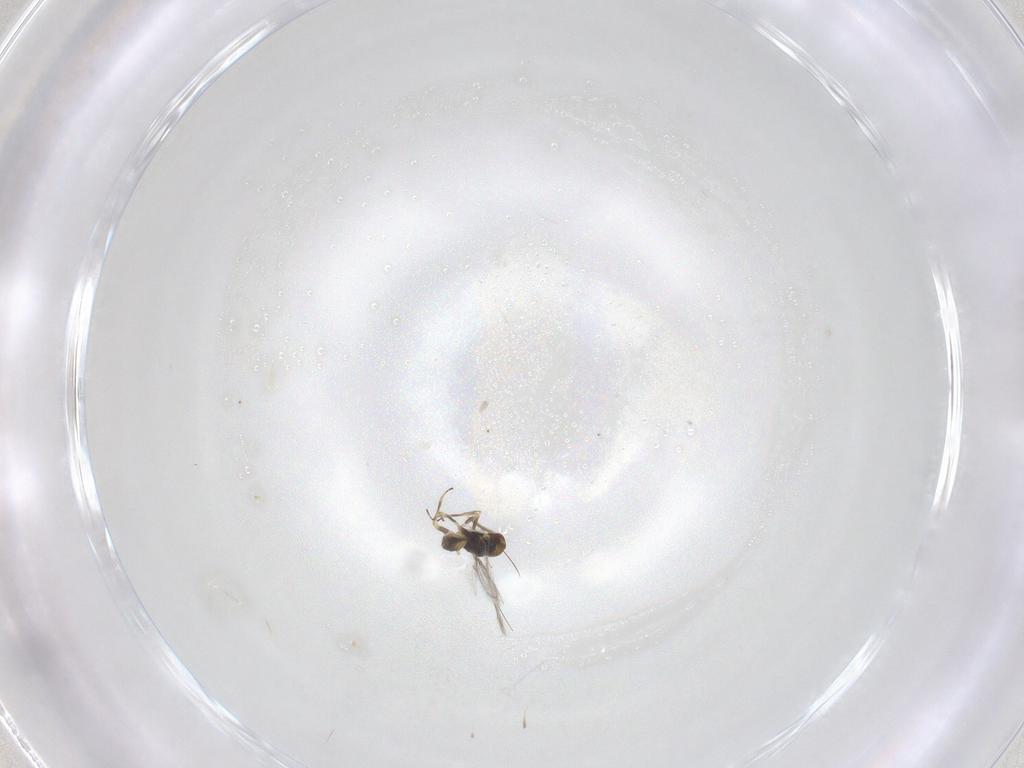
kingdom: Animalia
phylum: Arthropoda
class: Insecta
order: Hymenoptera
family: Eulophidae
